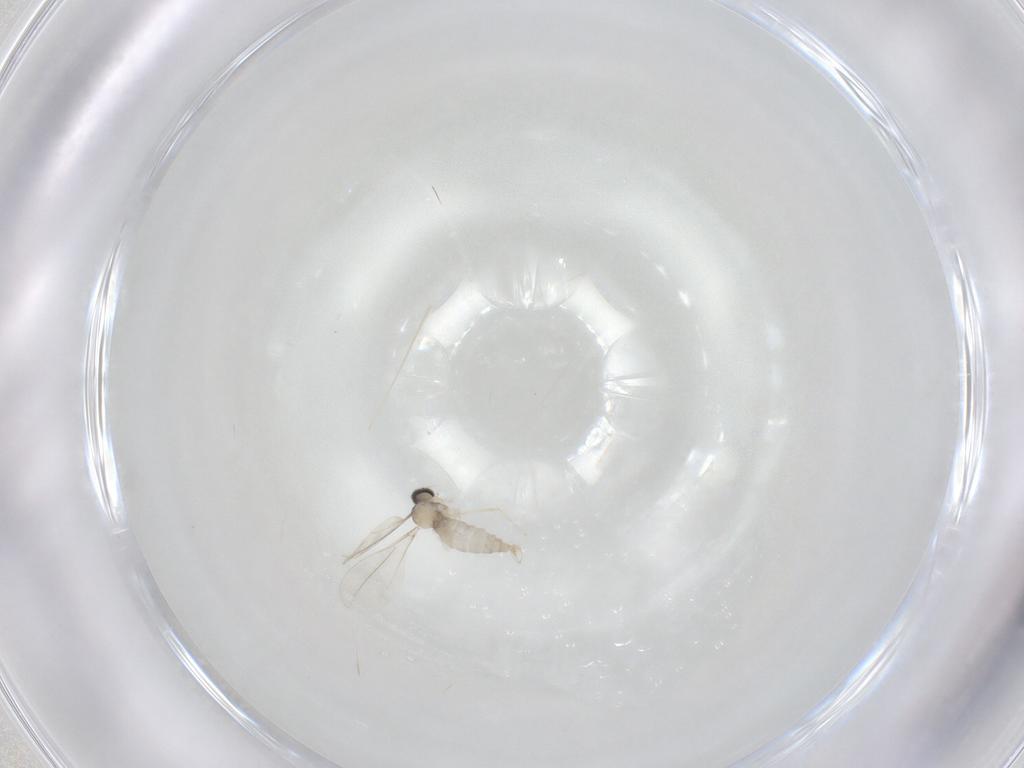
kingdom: Animalia
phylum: Arthropoda
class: Insecta
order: Diptera
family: Cecidomyiidae
